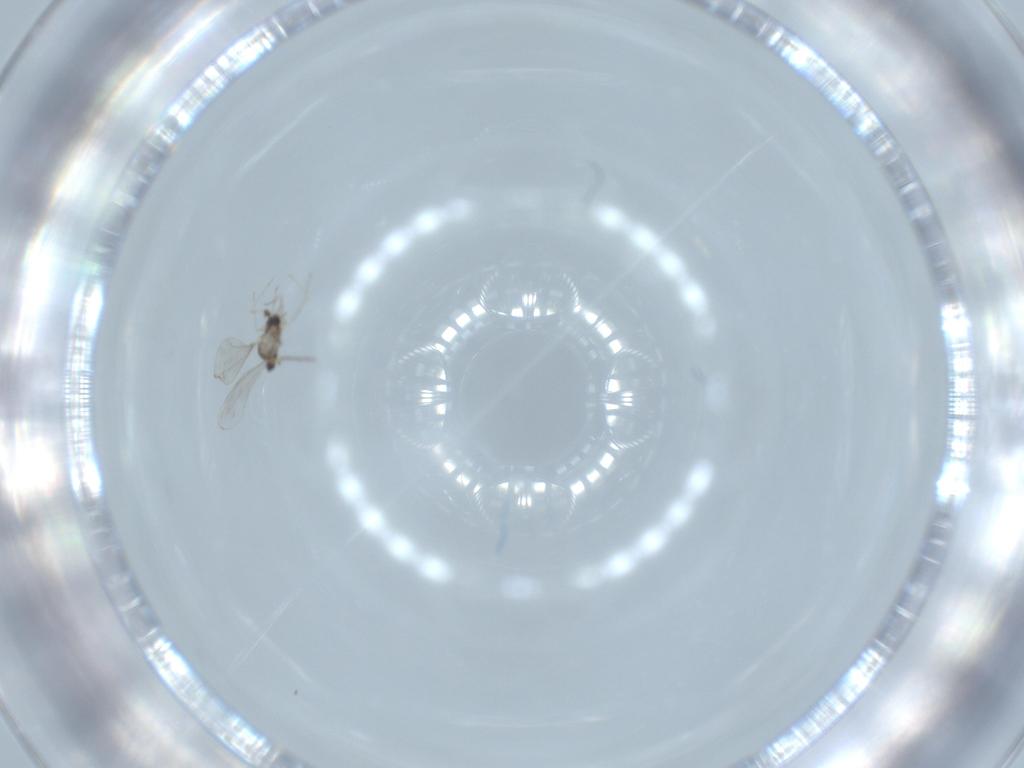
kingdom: Animalia
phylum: Arthropoda
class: Insecta
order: Diptera
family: Cecidomyiidae
